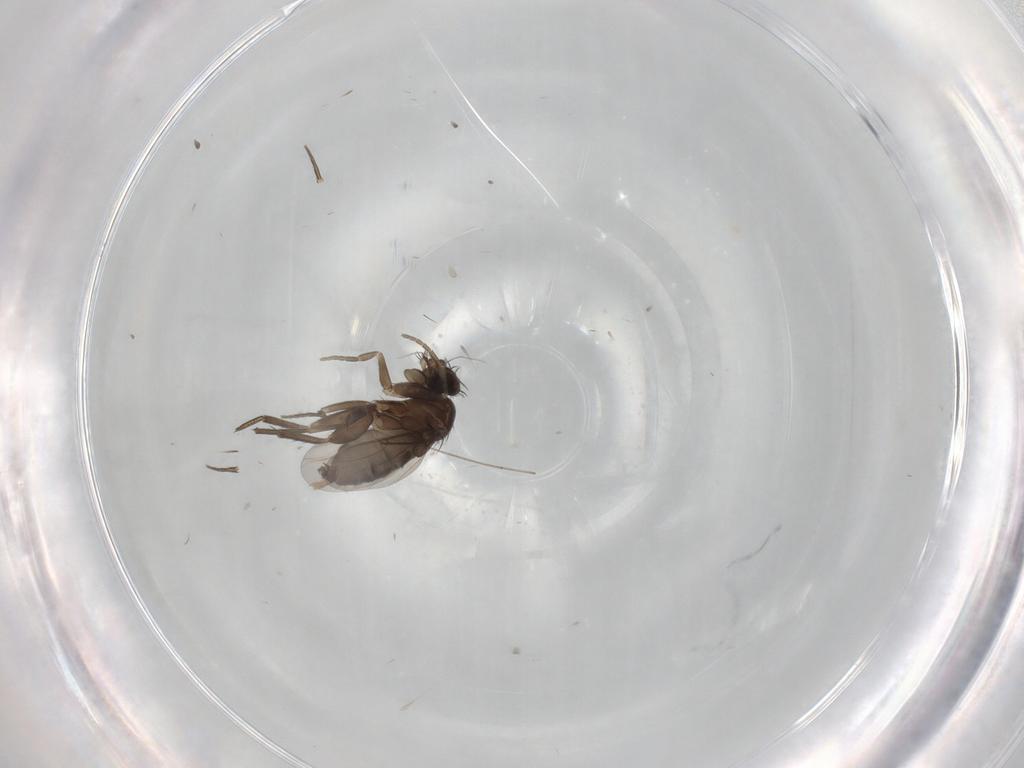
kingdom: Animalia
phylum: Arthropoda
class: Insecta
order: Diptera
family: Phoridae
